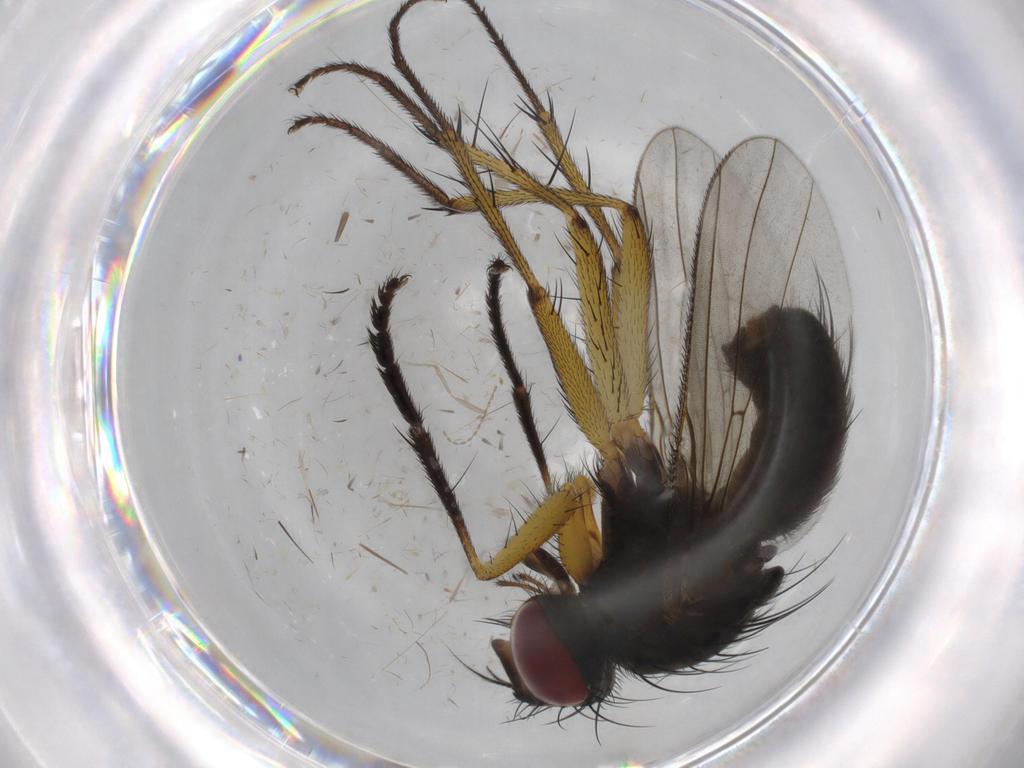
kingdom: Animalia
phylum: Arthropoda
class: Insecta
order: Diptera
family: Muscidae
